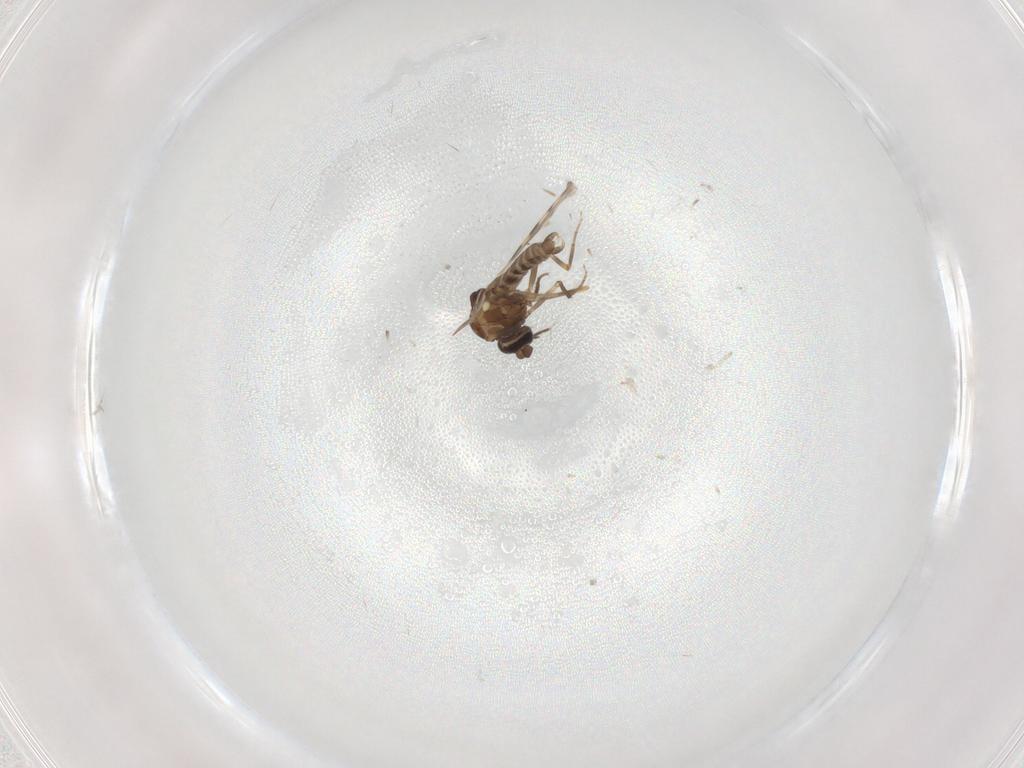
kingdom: Animalia
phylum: Arthropoda
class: Insecta
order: Diptera
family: Ceratopogonidae
